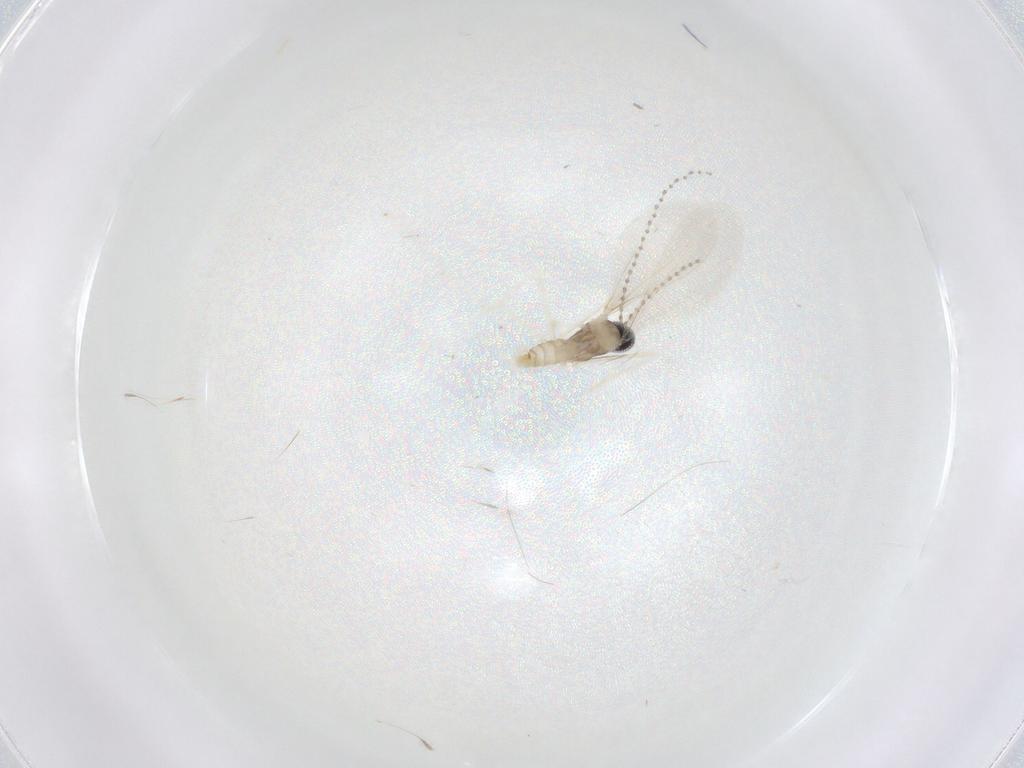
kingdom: Animalia
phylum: Arthropoda
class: Insecta
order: Diptera
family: Cecidomyiidae
